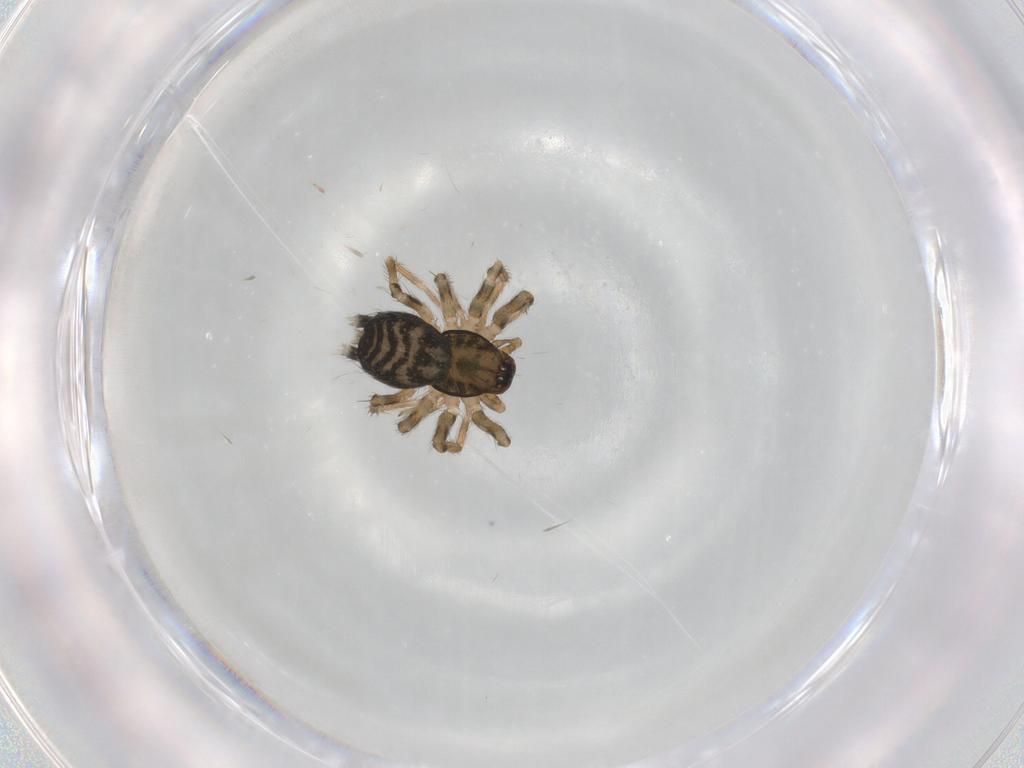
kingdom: Animalia
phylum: Arthropoda
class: Arachnida
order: Araneae
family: Dictynidae
